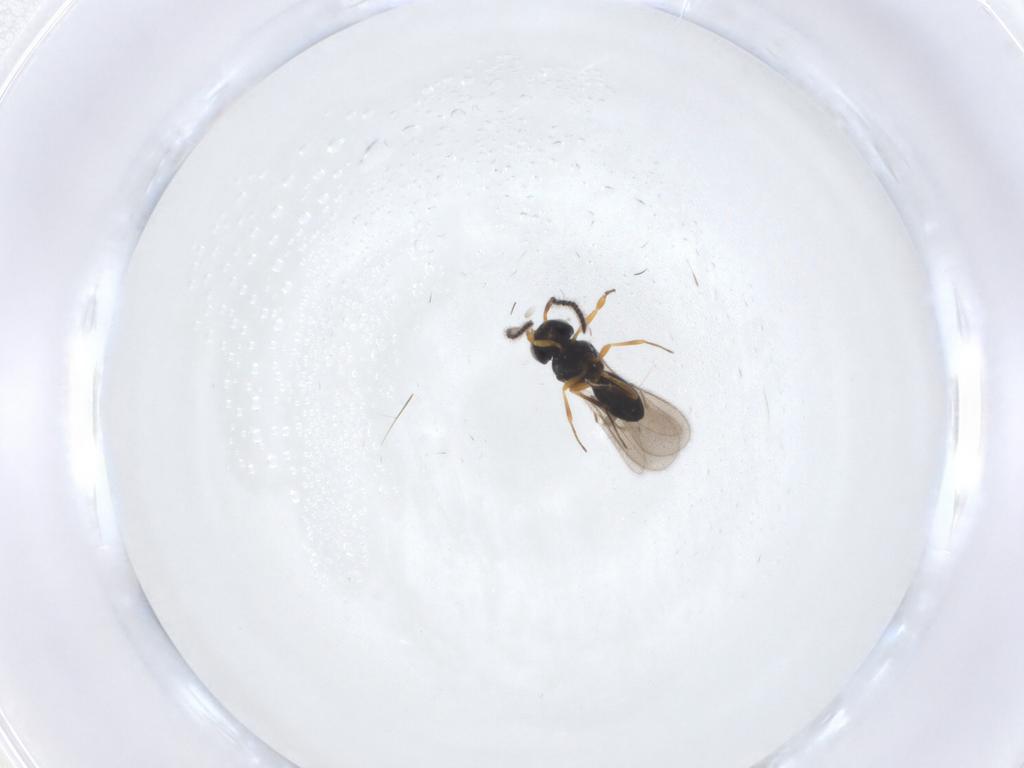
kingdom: Animalia
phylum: Arthropoda
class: Insecta
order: Hymenoptera
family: Scelionidae
